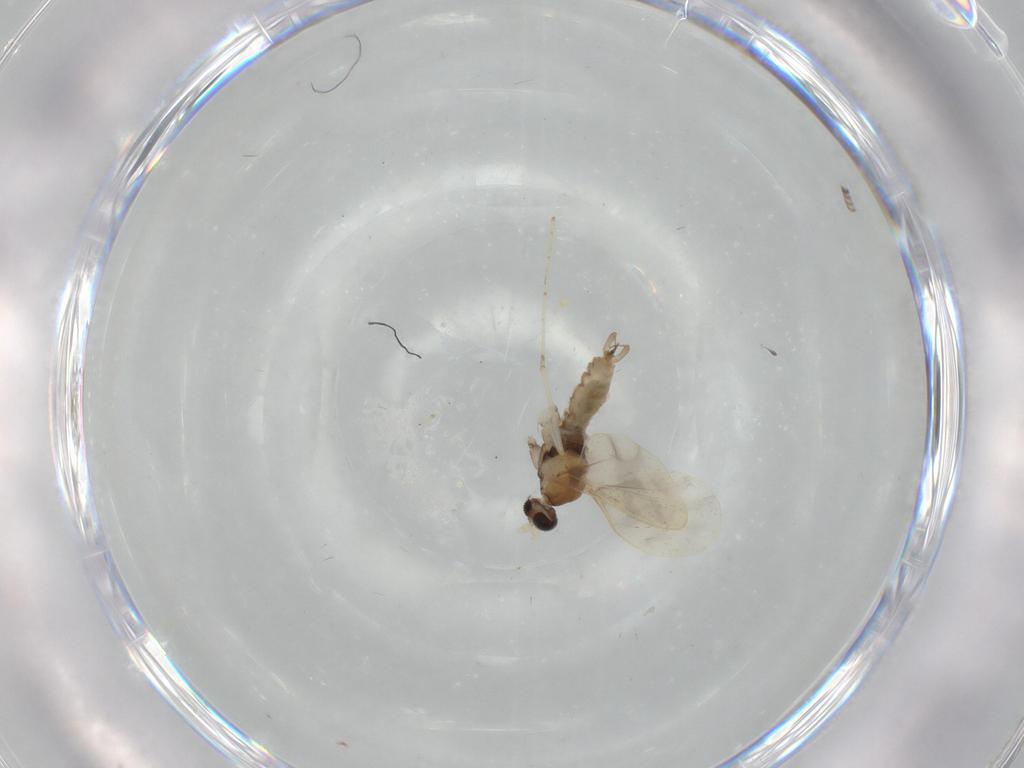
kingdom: Animalia
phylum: Arthropoda
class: Insecta
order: Diptera
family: Cecidomyiidae
